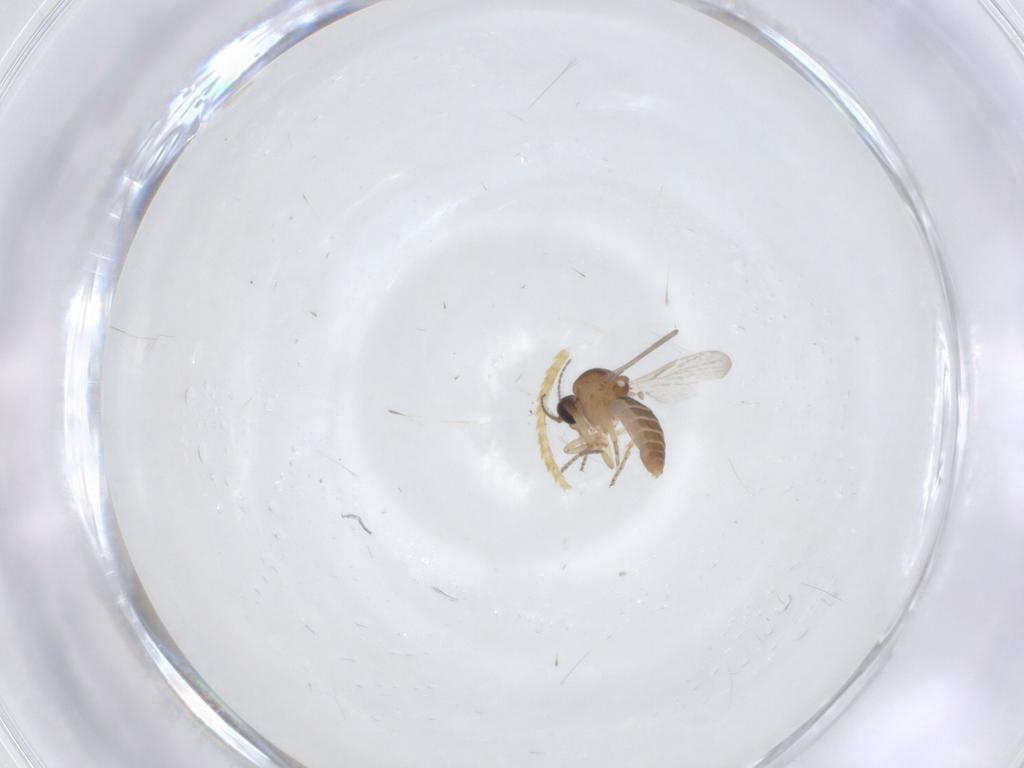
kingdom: Animalia
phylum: Arthropoda
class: Insecta
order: Diptera
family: Ceratopogonidae
